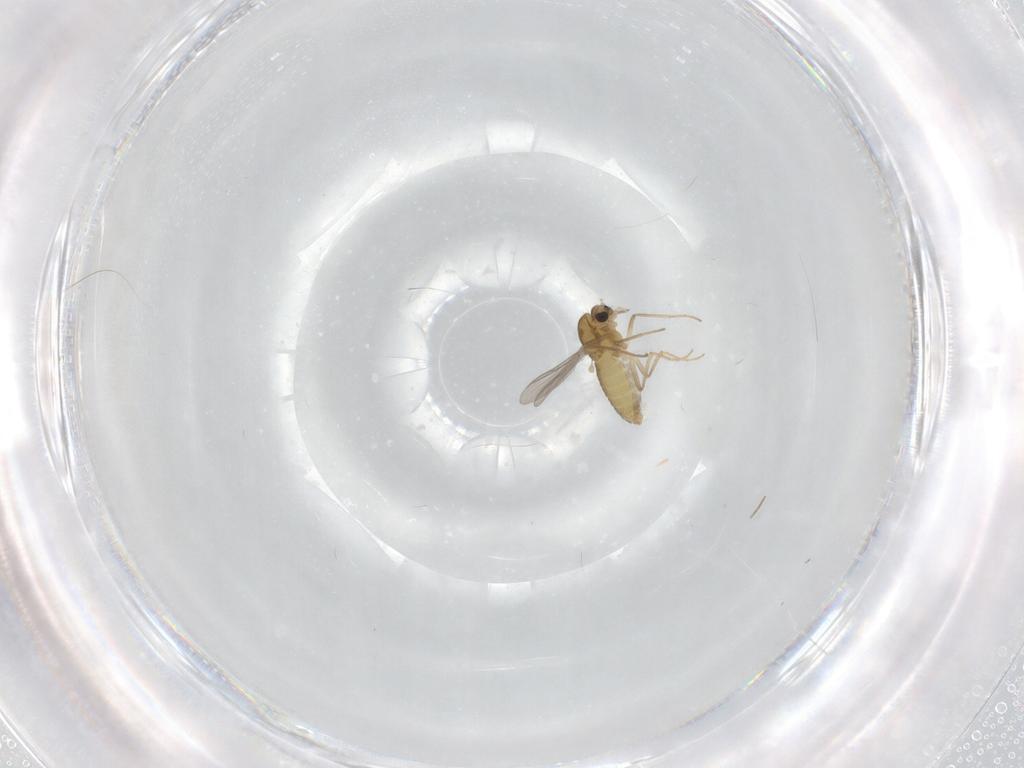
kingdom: Animalia
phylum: Arthropoda
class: Insecta
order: Diptera
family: Chironomidae
